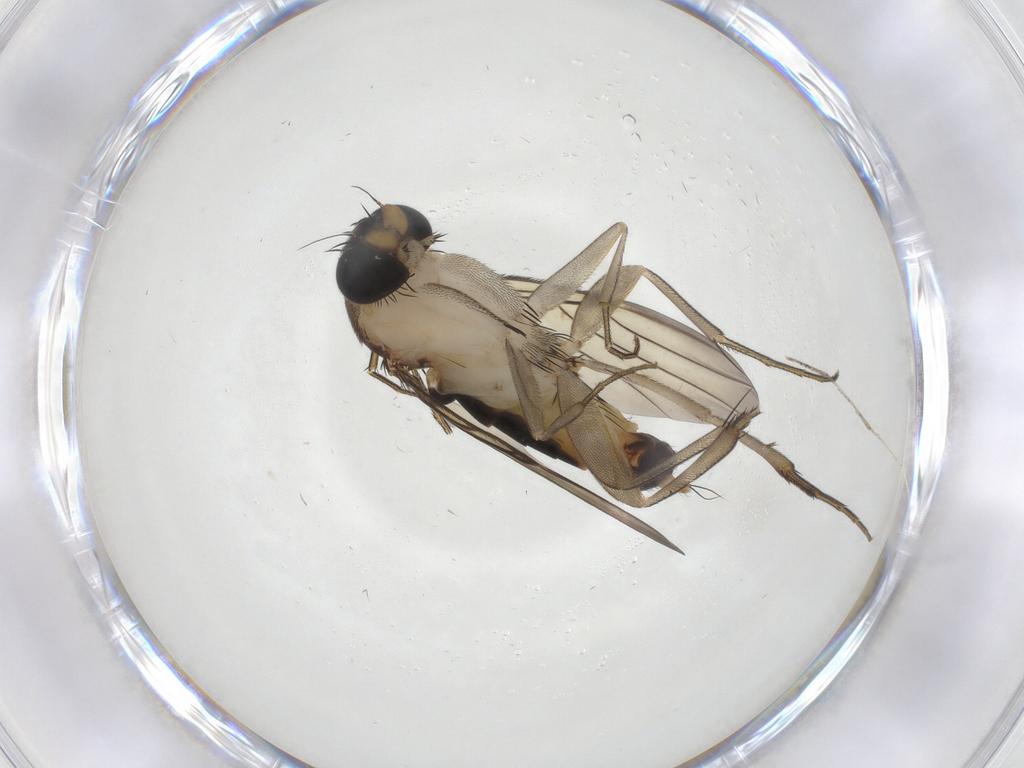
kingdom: Animalia
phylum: Arthropoda
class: Insecta
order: Diptera
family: Phoridae
